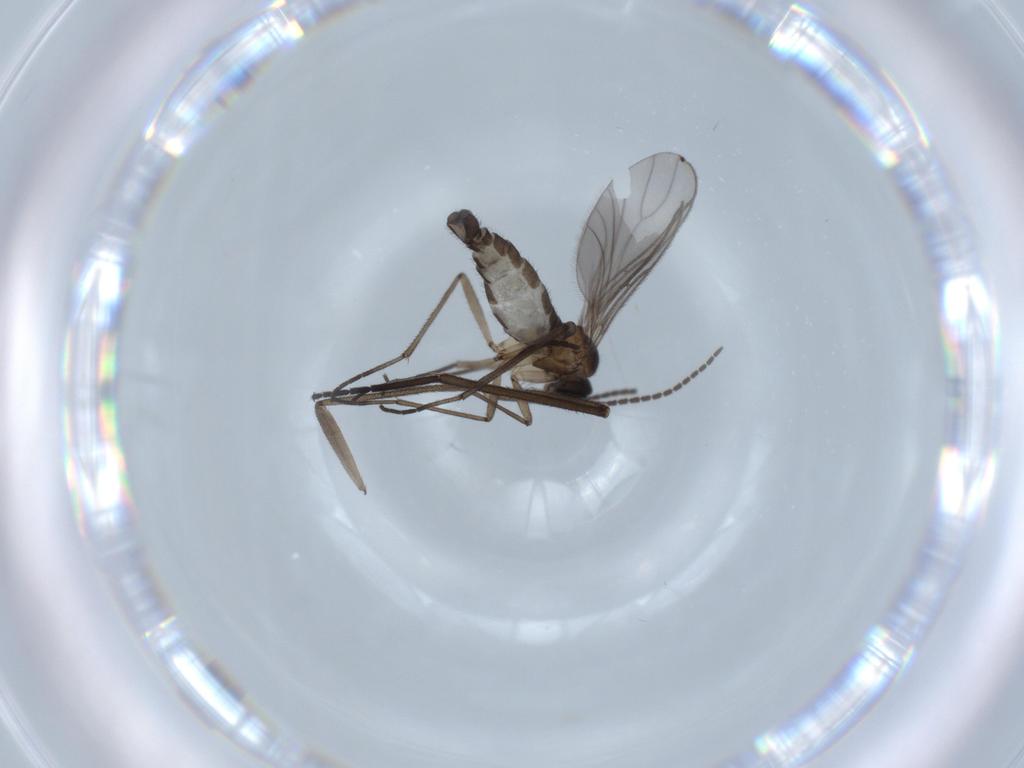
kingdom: Animalia
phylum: Arthropoda
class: Insecta
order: Diptera
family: Sciaridae
